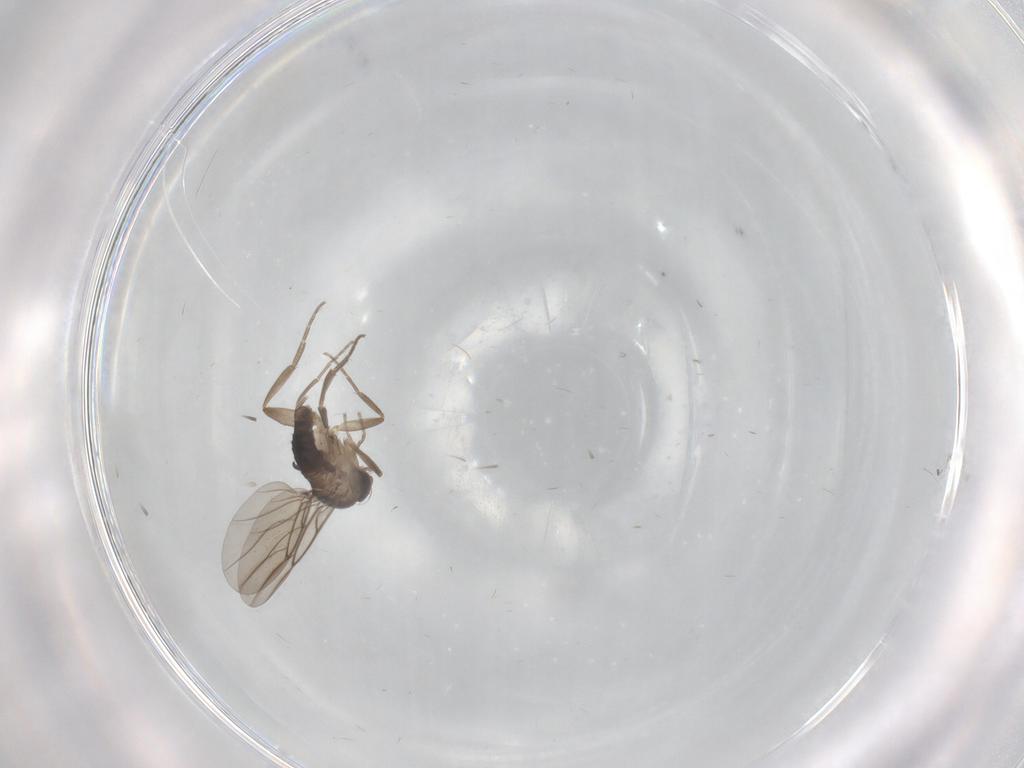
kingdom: Animalia
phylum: Arthropoda
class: Insecta
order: Diptera
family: Phoridae
